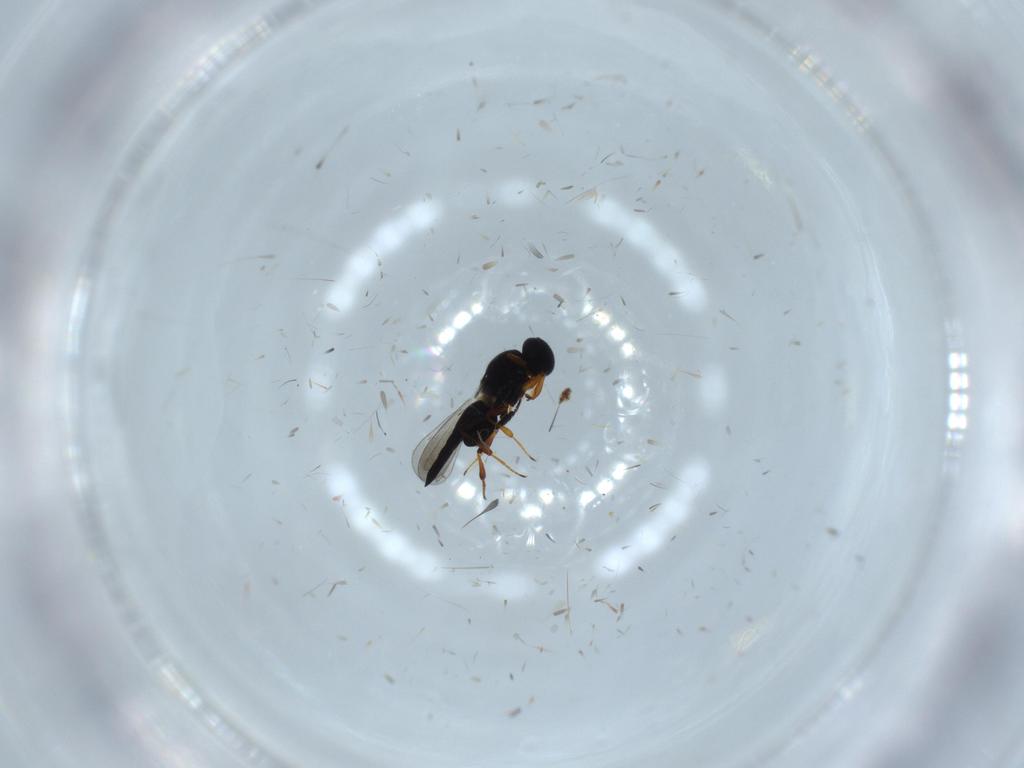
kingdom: Animalia
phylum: Arthropoda
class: Insecta
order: Hymenoptera
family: Platygastridae
